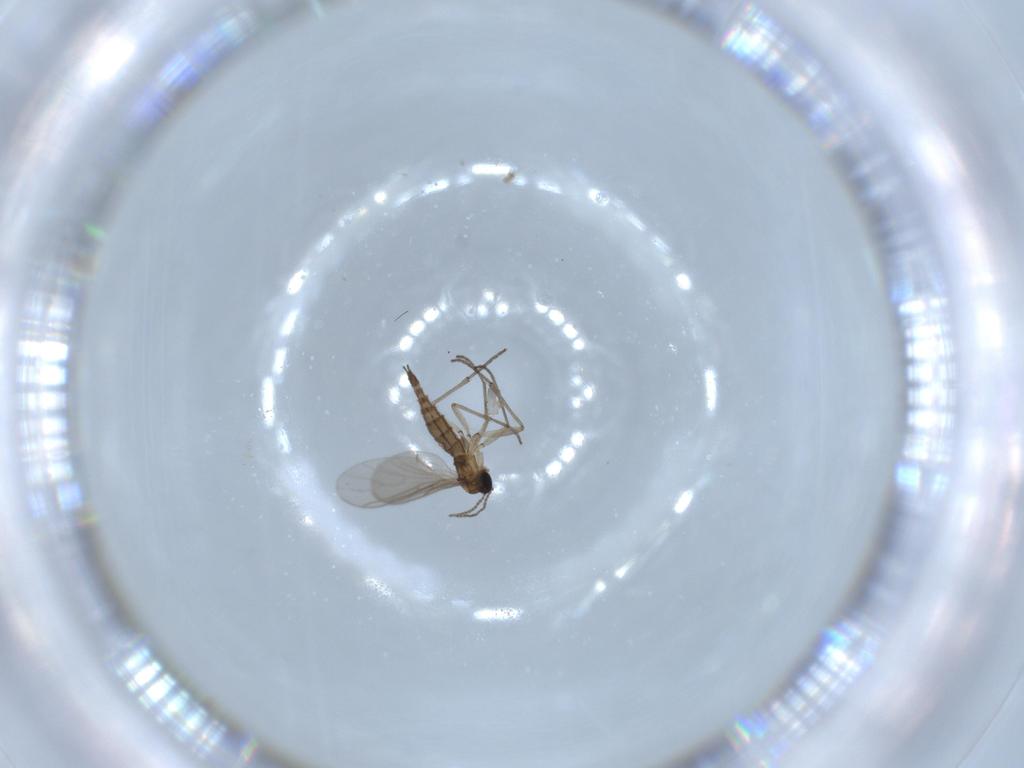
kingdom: Animalia
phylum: Arthropoda
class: Insecta
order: Diptera
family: Sciaridae
